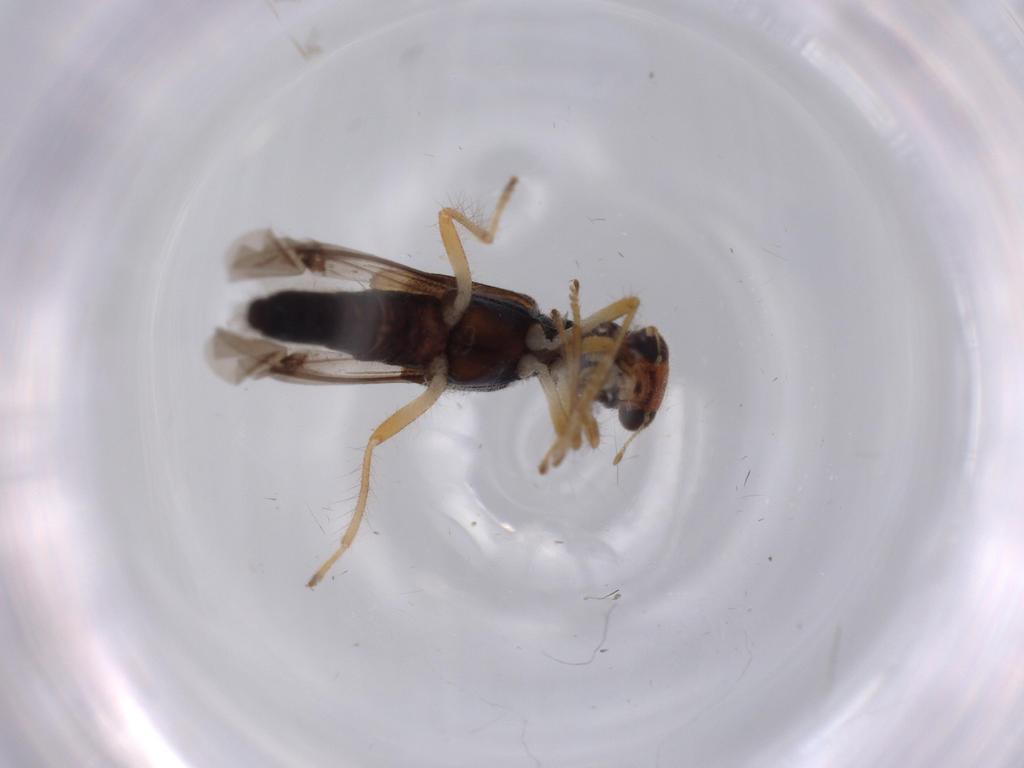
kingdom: Animalia
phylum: Arthropoda
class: Insecta
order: Coleoptera
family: Cleridae
